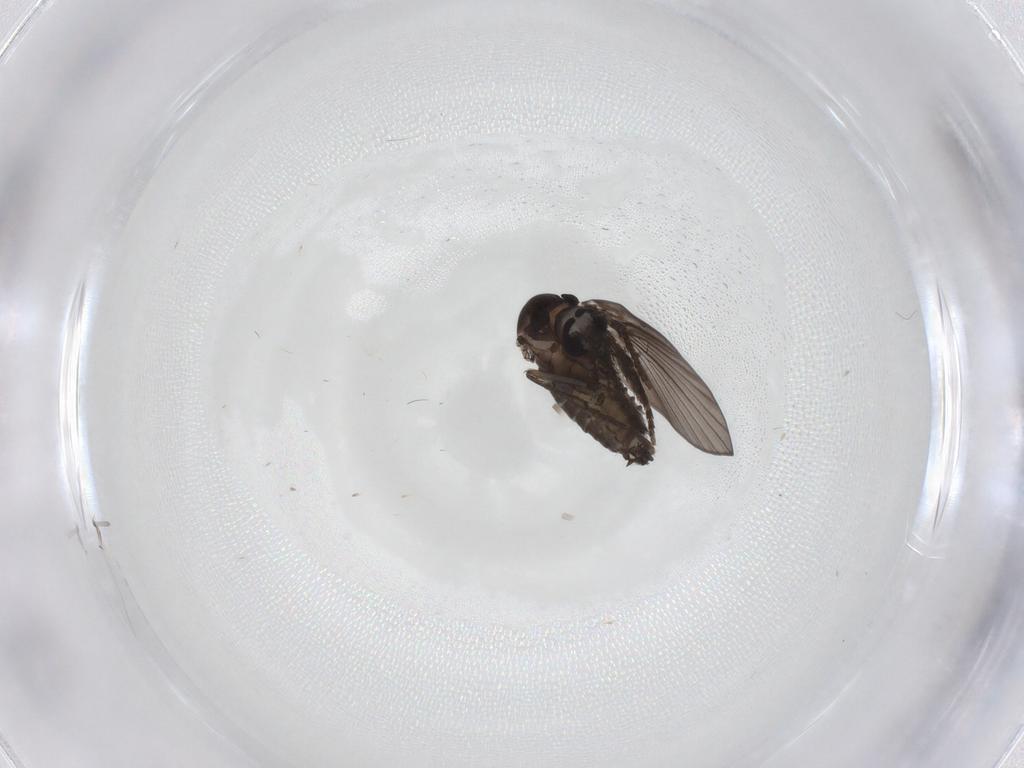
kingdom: Animalia
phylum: Arthropoda
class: Insecta
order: Diptera
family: Psychodidae
